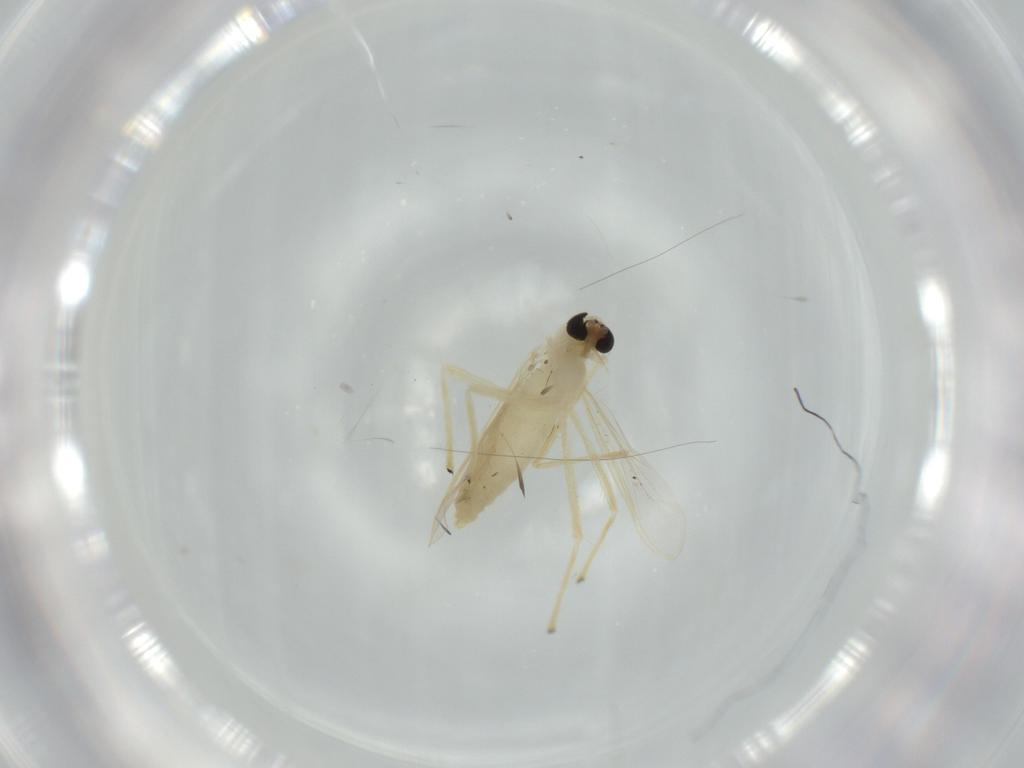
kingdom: Animalia
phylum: Arthropoda
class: Insecta
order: Diptera
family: Chironomidae
